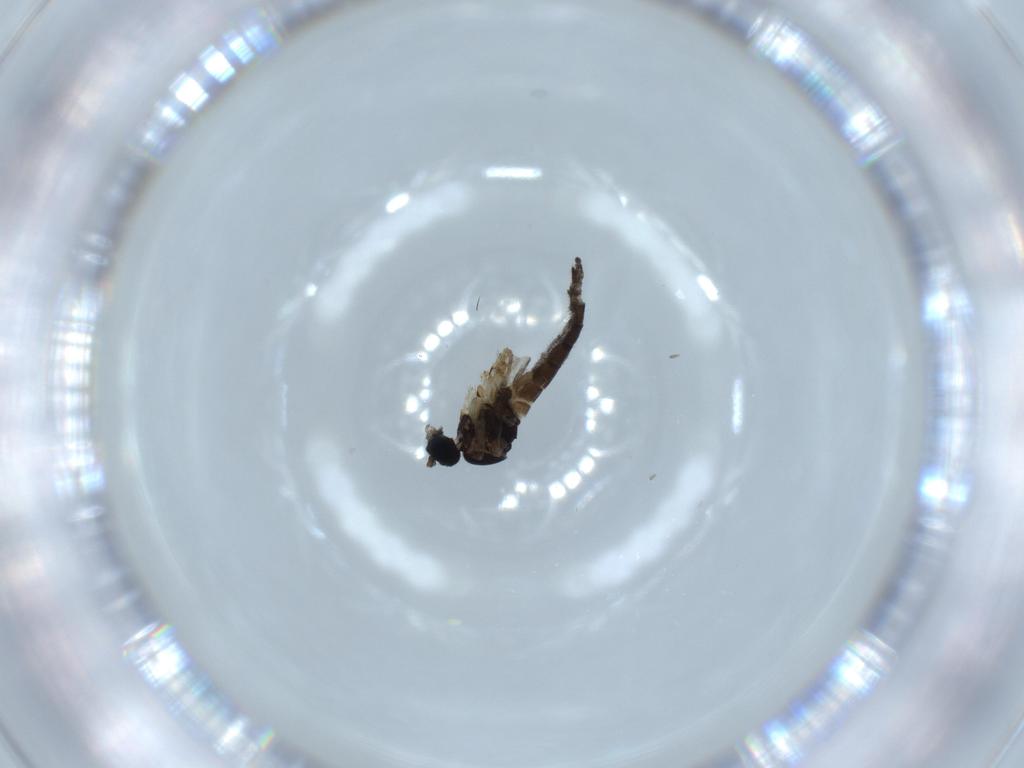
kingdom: Animalia
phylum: Arthropoda
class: Insecta
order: Diptera
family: Sciaridae
